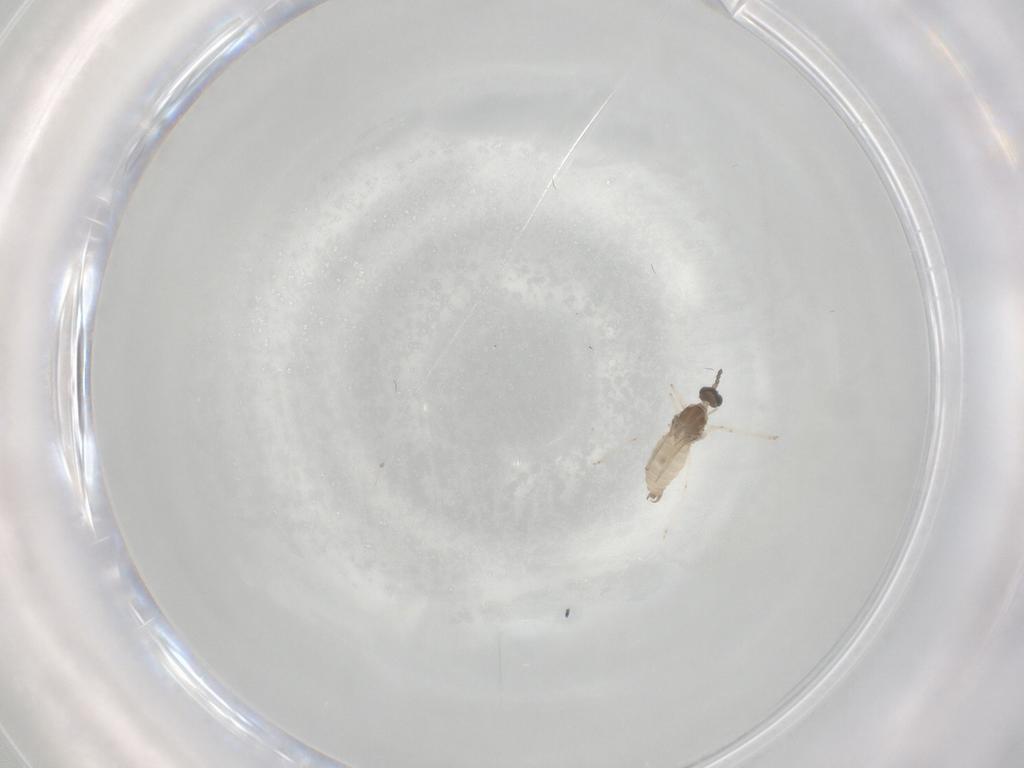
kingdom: Animalia
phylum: Arthropoda
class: Insecta
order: Diptera
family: Cecidomyiidae
